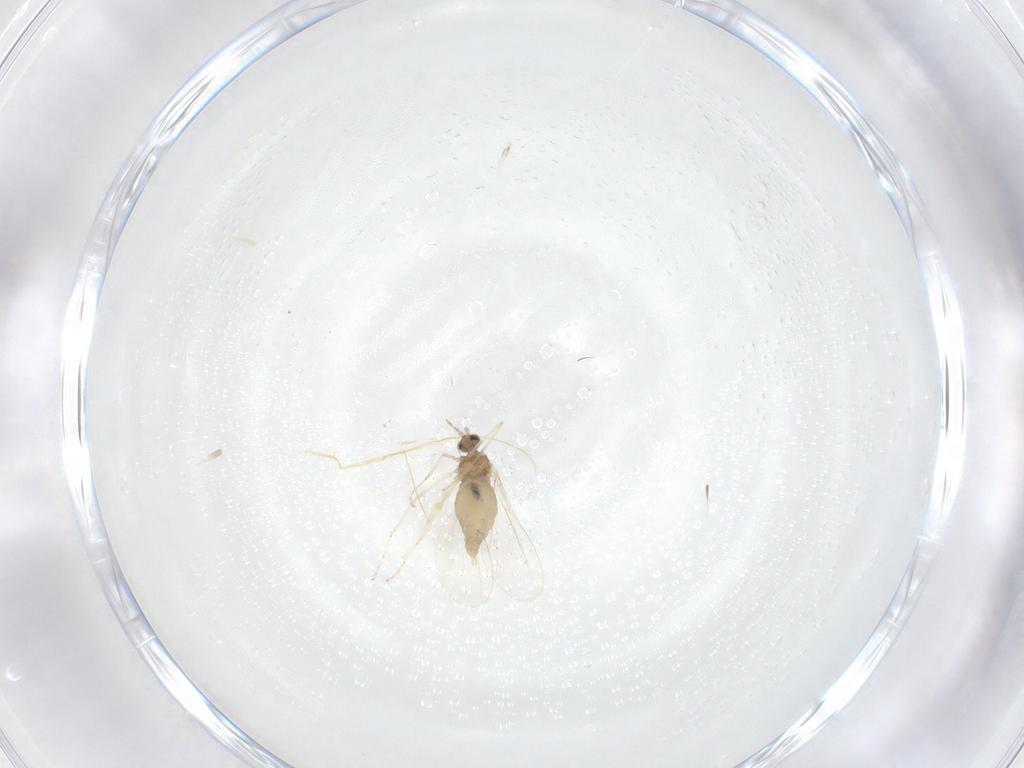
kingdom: Animalia
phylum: Arthropoda
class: Insecta
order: Diptera
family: Cecidomyiidae
